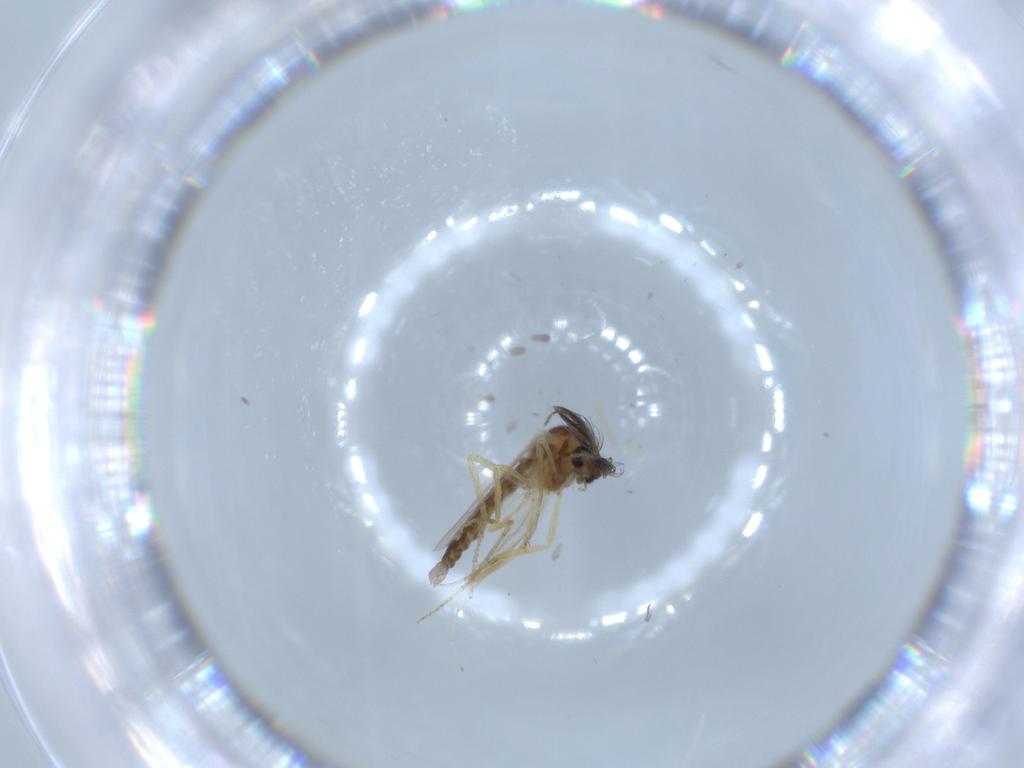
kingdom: Animalia
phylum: Arthropoda
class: Insecta
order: Diptera
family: Ceratopogonidae
